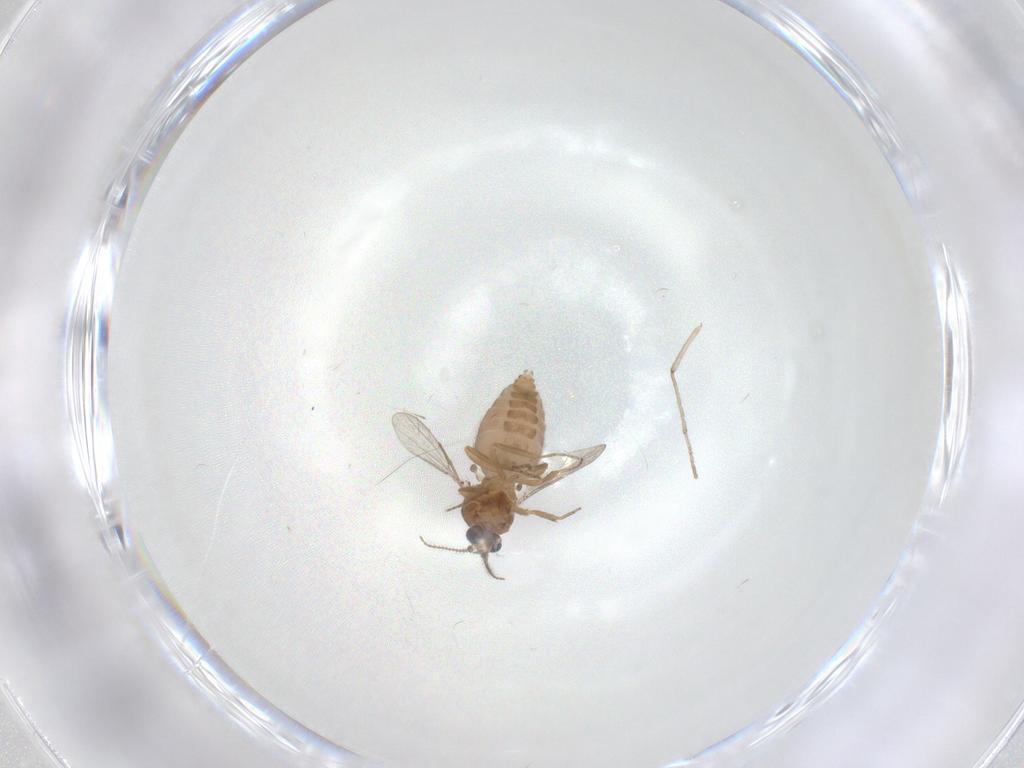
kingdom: Animalia
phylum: Arthropoda
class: Insecta
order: Diptera
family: Ceratopogonidae
